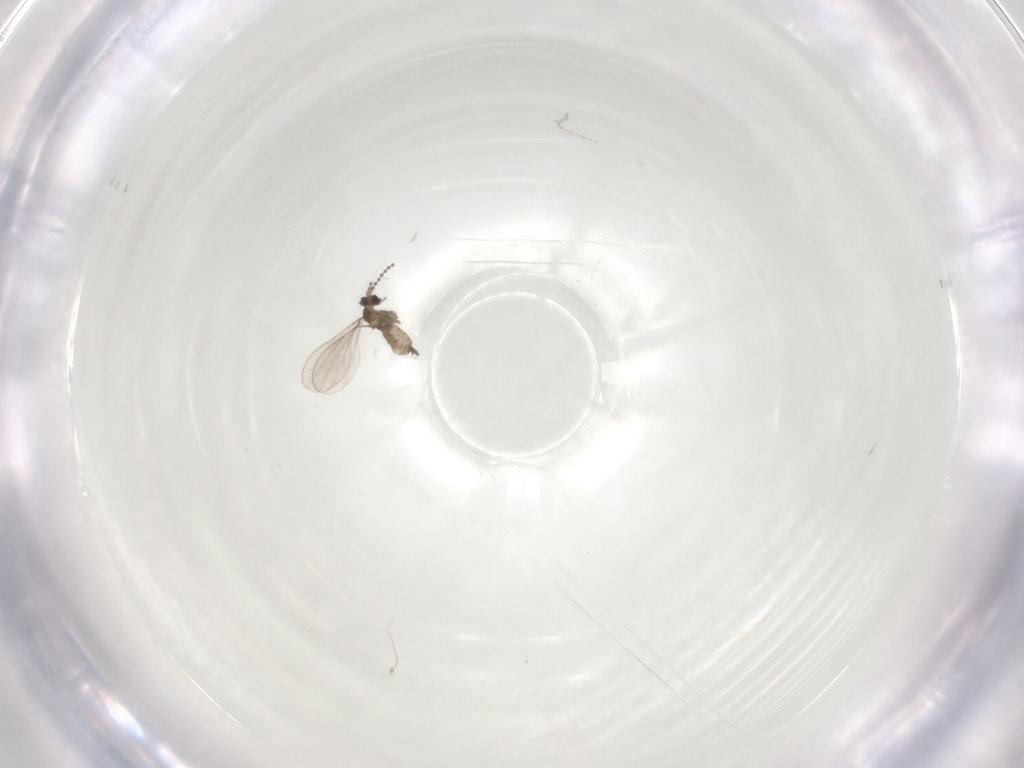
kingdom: Animalia
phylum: Arthropoda
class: Insecta
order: Diptera
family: Cecidomyiidae
